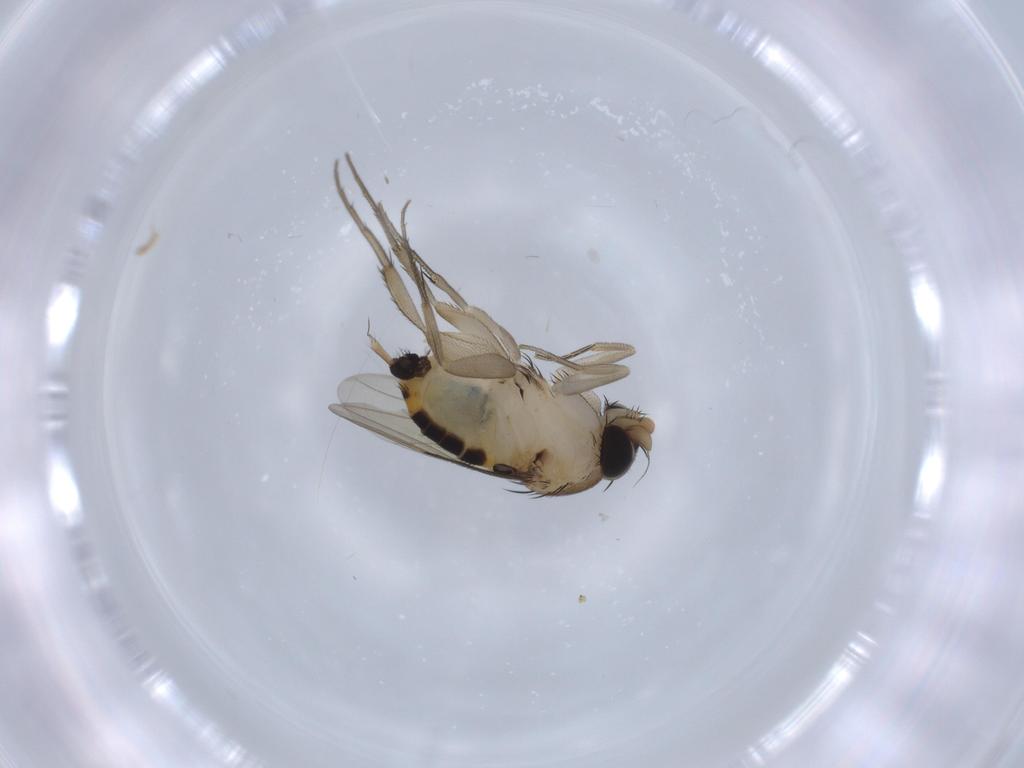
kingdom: Animalia
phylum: Arthropoda
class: Insecta
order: Diptera
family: Phoridae
